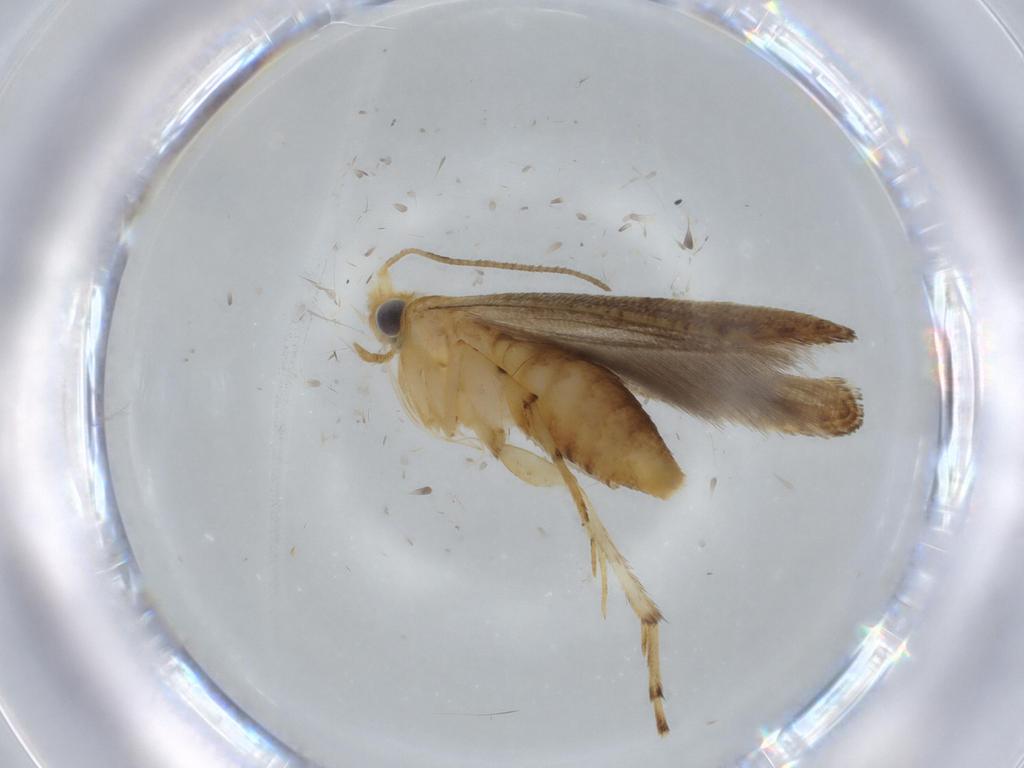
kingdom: Animalia
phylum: Arthropoda
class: Insecta
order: Lepidoptera
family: Argyresthiidae
